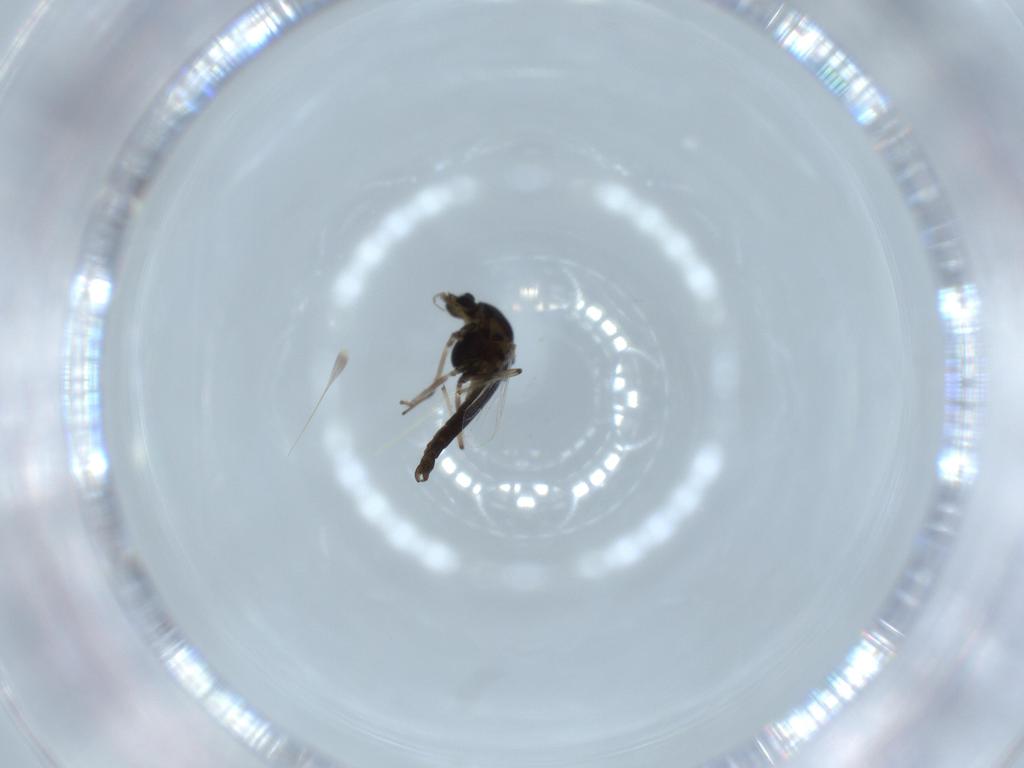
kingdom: Animalia
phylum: Arthropoda
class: Insecta
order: Diptera
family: Chironomidae
